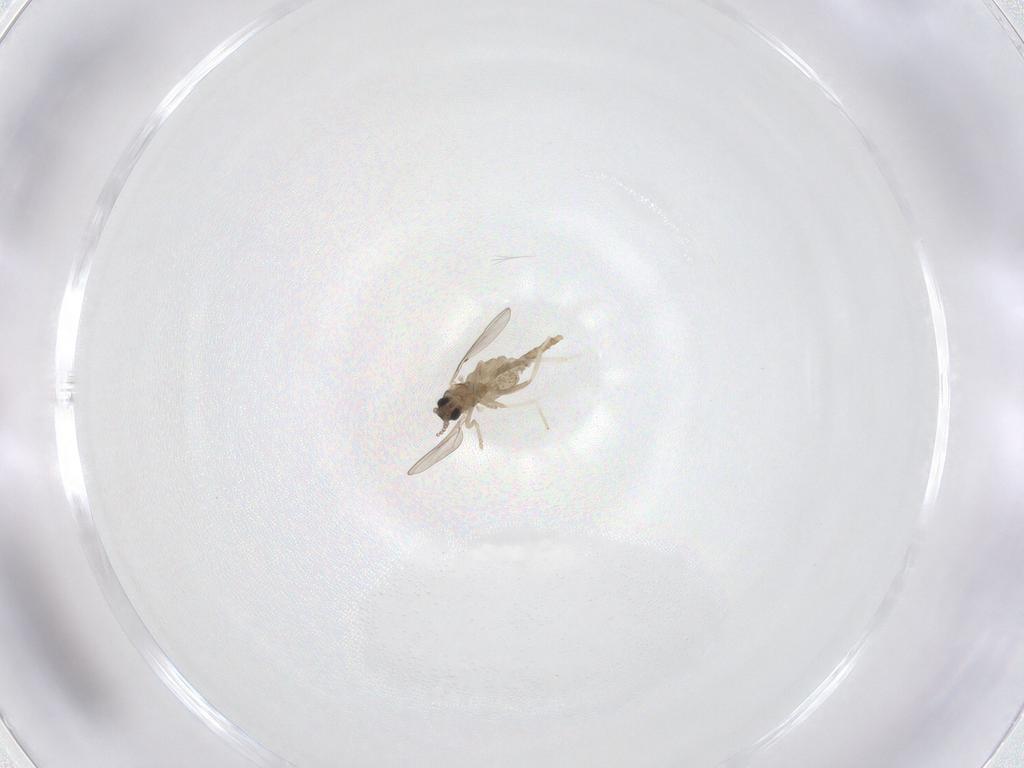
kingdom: Animalia
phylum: Arthropoda
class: Insecta
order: Diptera
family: Cecidomyiidae
